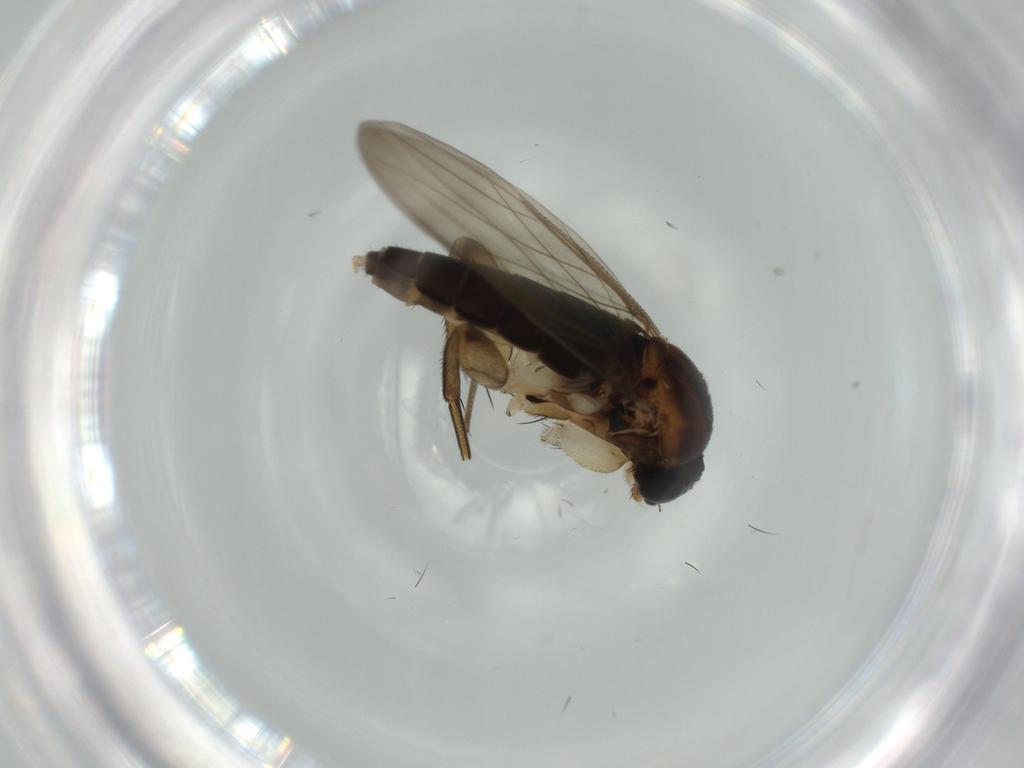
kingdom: Animalia
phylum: Arthropoda
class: Insecta
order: Diptera
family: Phoridae
